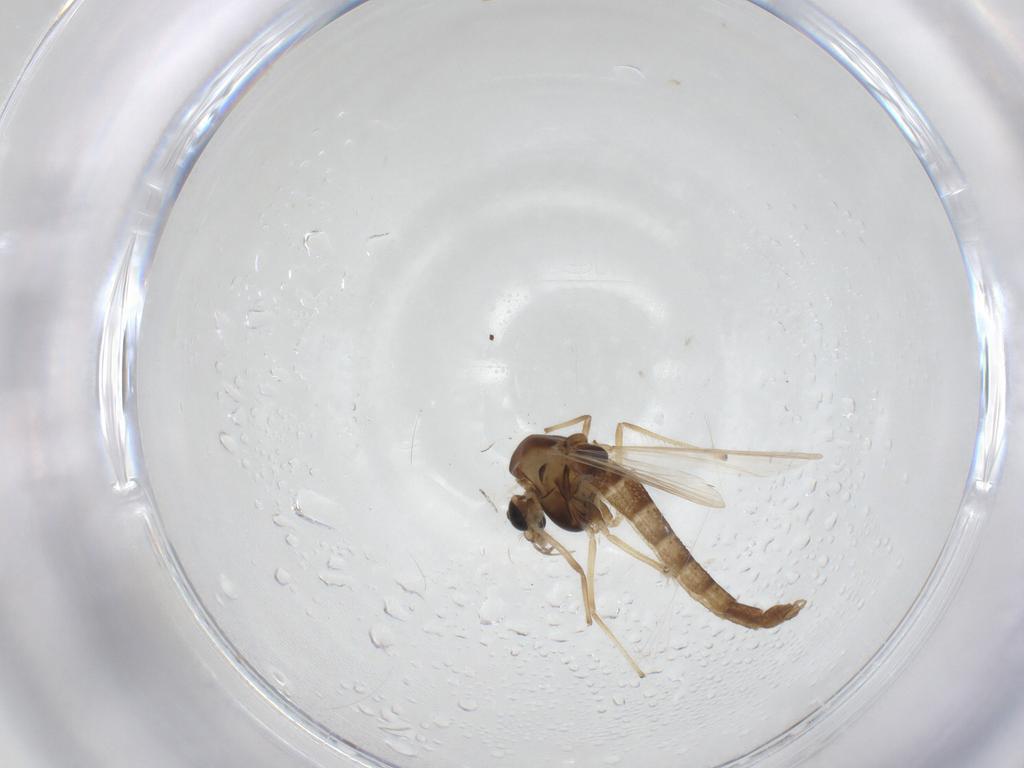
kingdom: Animalia
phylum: Arthropoda
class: Insecta
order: Diptera
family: Chironomidae
